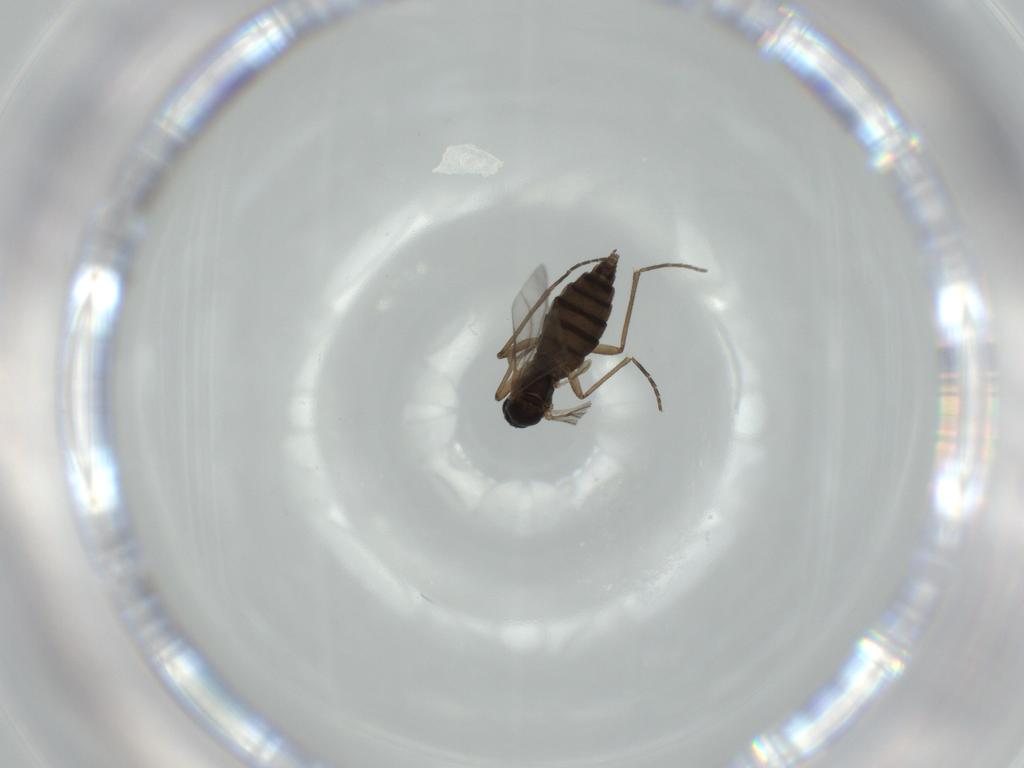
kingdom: Animalia
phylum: Arthropoda
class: Insecta
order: Diptera
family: Sciaridae
